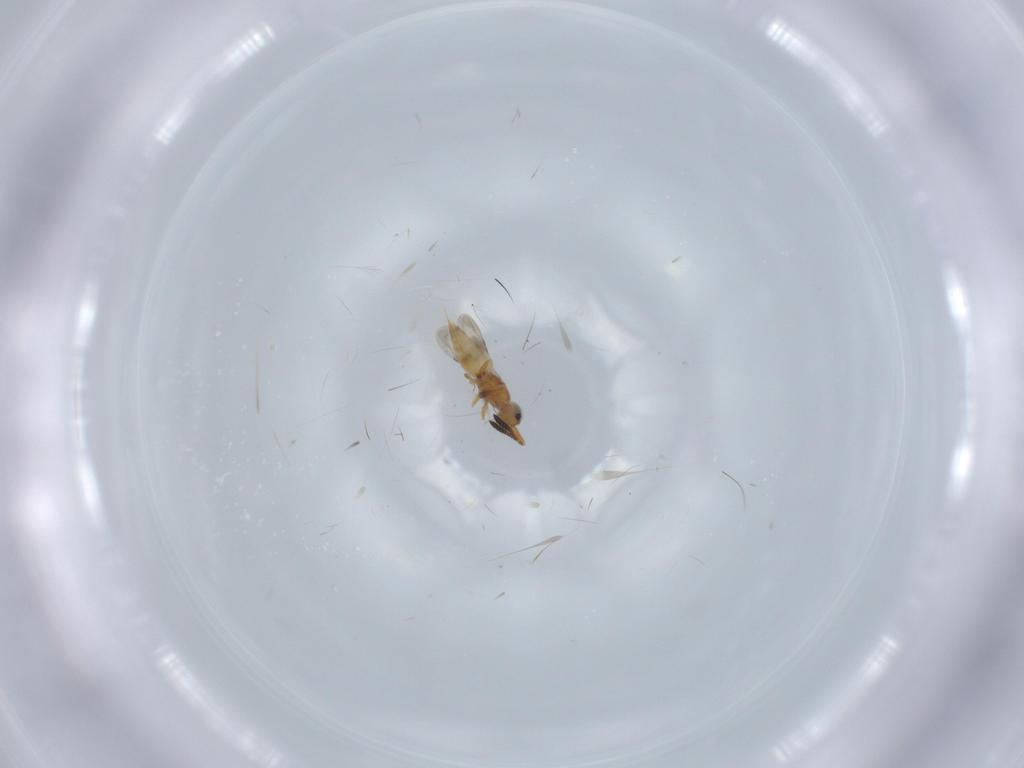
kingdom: Animalia
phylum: Arthropoda
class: Insecta
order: Hymenoptera
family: Ceraphronidae
